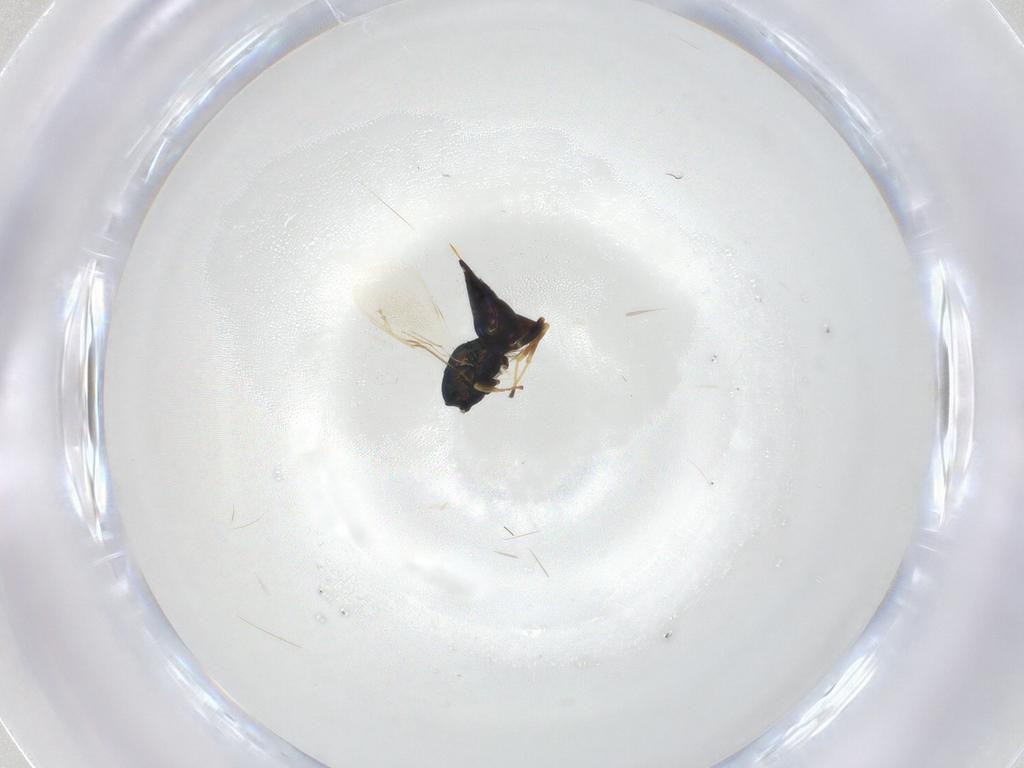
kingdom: Animalia
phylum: Arthropoda
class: Insecta
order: Hymenoptera
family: Pteromalidae
